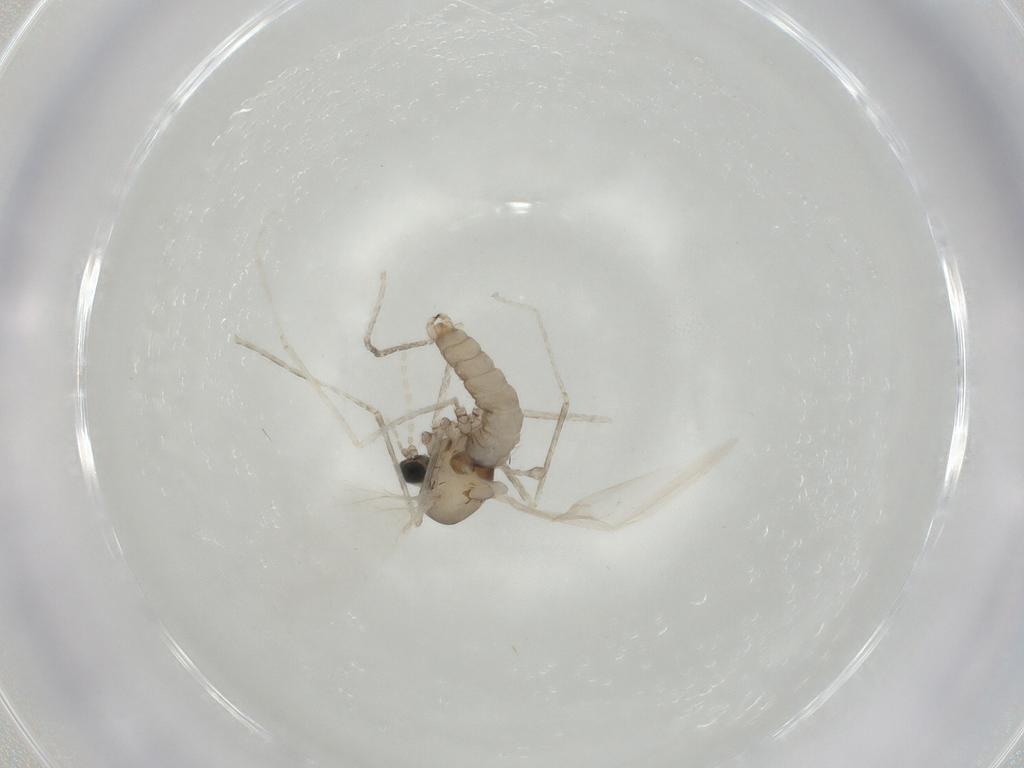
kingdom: Animalia
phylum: Arthropoda
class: Insecta
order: Diptera
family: Cecidomyiidae
